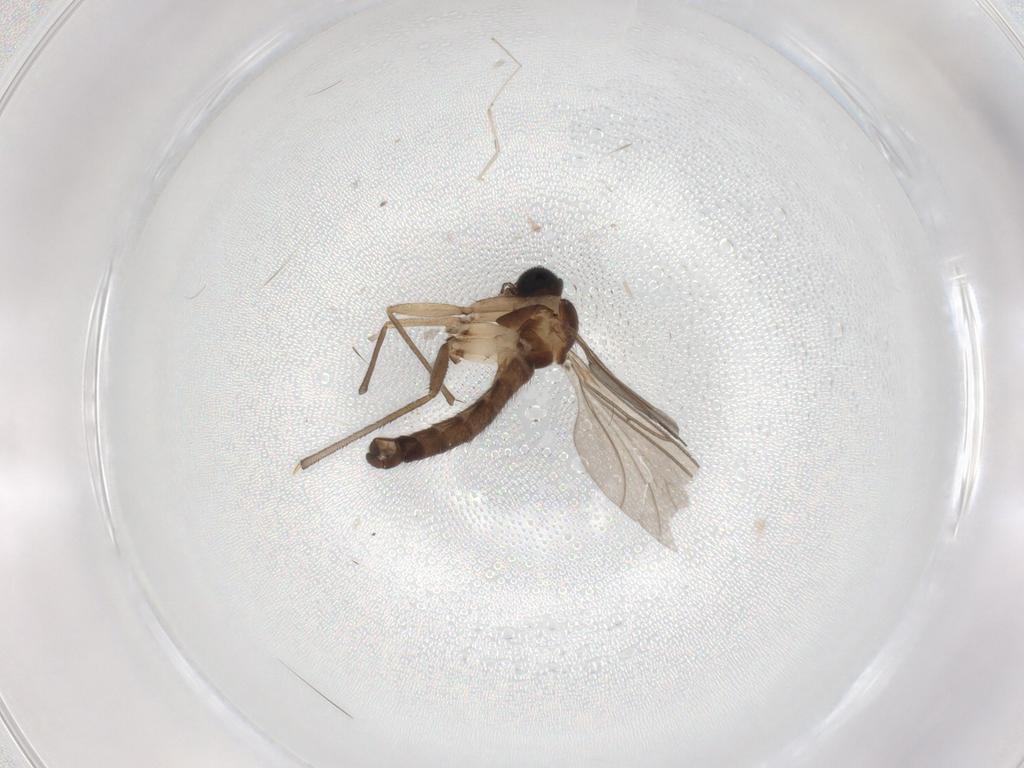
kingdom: Animalia
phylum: Arthropoda
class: Insecta
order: Diptera
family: Sciaridae
